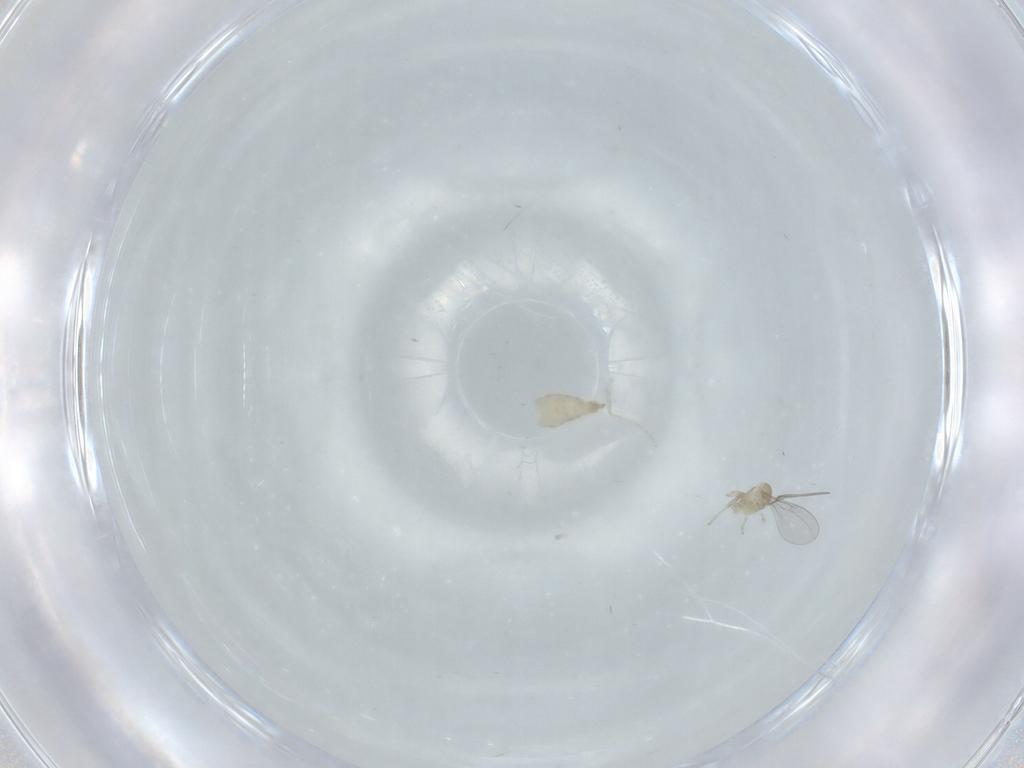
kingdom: Animalia
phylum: Arthropoda
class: Insecta
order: Diptera
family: Cecidomyiidae
